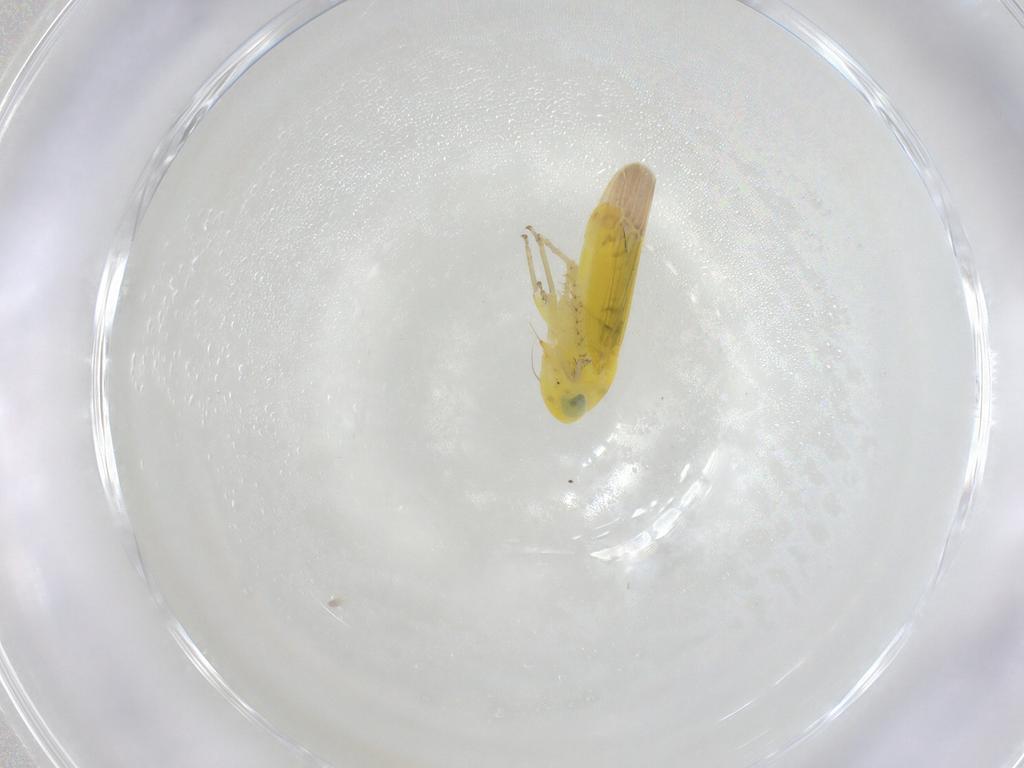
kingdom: Animalia
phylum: Arthropoda
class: Insecta
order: Hemiptera
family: Cicadellidae
